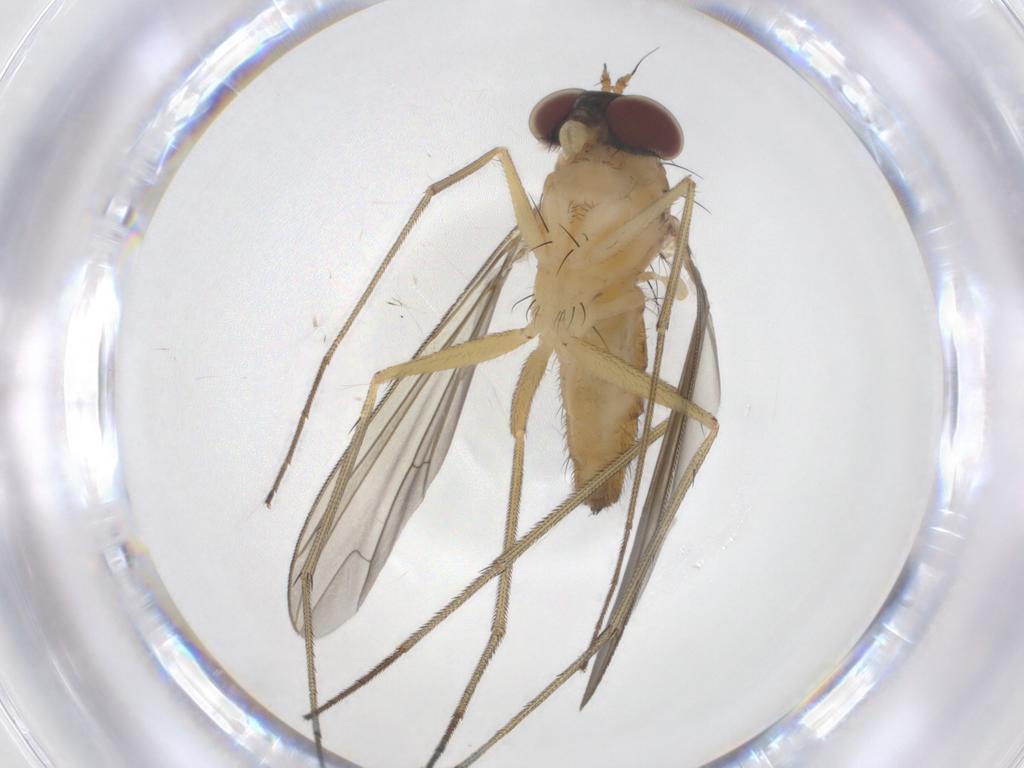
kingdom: Animalia
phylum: Arthropoda
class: Insecta
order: Diptera
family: Dolichopodidae
